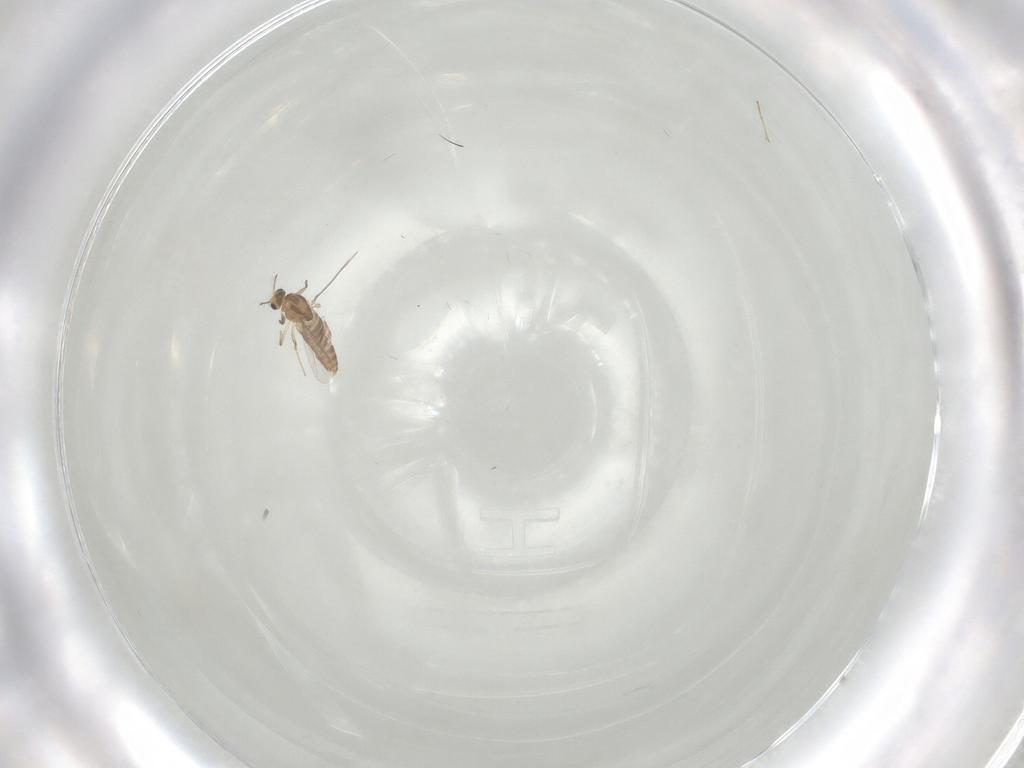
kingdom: Animalia
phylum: Arthropoda
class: Insecta
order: Diptera
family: Chironomidae
